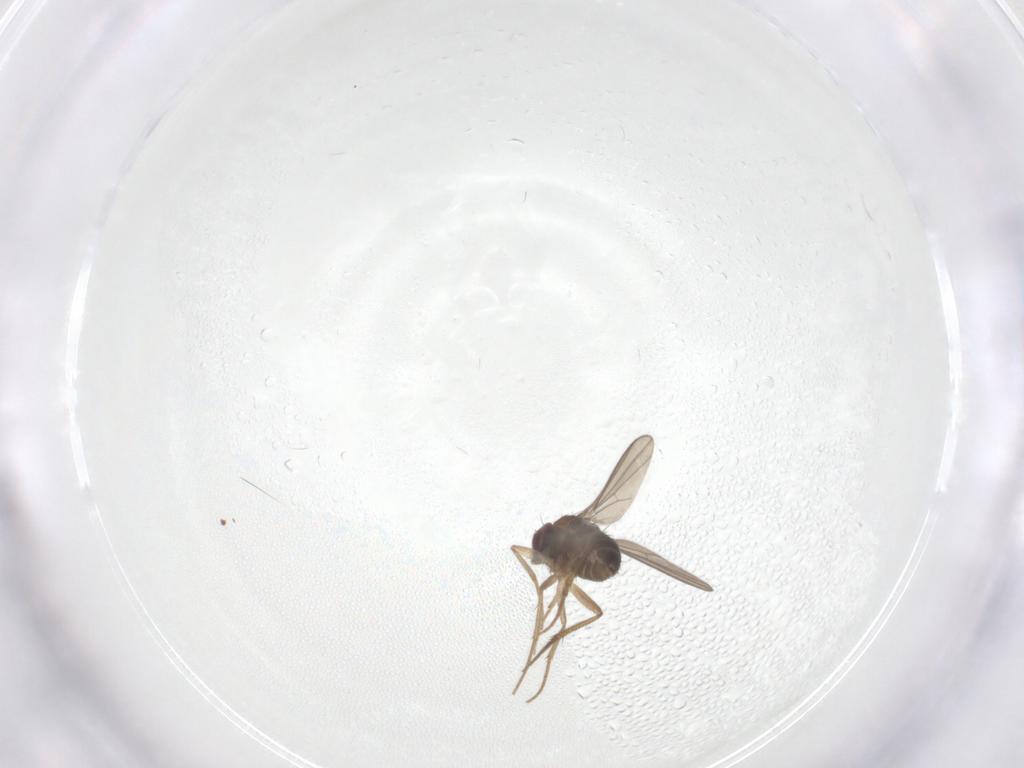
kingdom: Animalia
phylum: Arthropoda
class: Insecta
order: Diptera
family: Dolichopodidae
